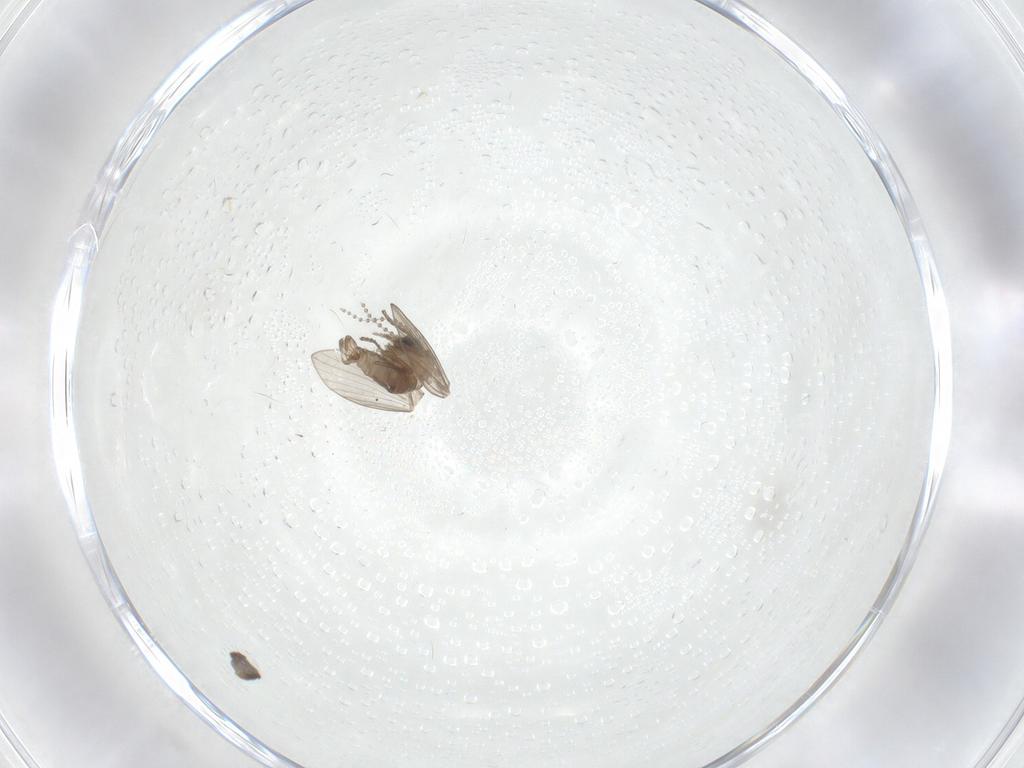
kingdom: Animalia
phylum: Arthropoda
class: Insecta
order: Diptera
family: Psychodidae
